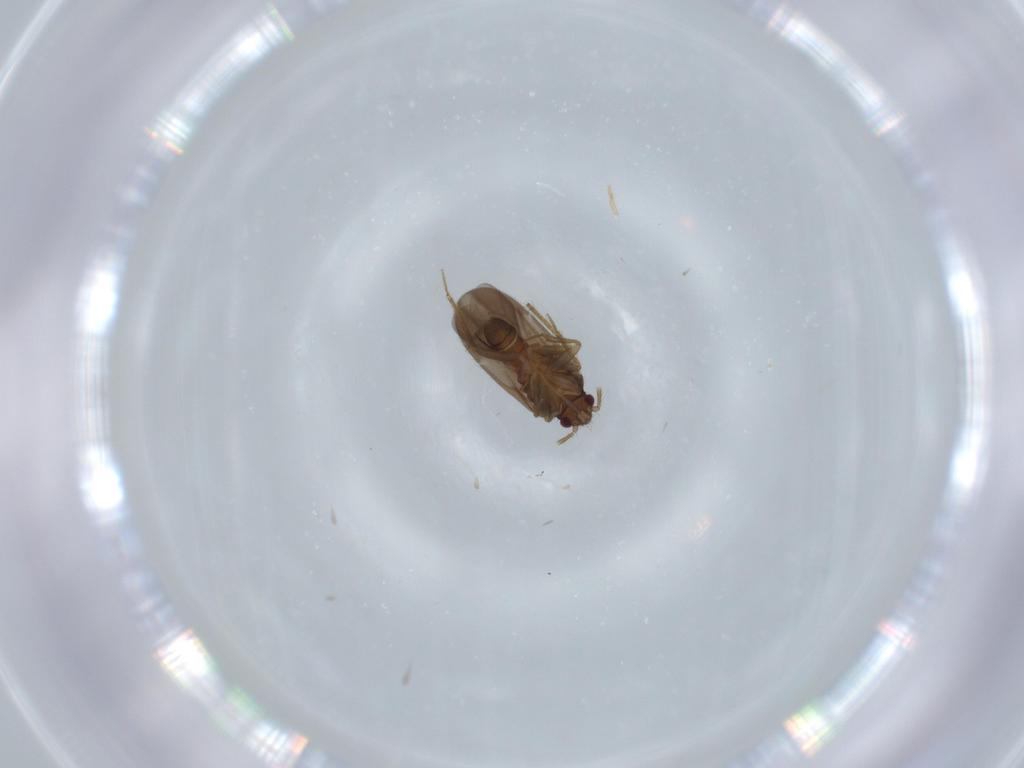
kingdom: Animalia
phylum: Arthropoda
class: Insecta
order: Hemiptera
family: Ceratocombidae
